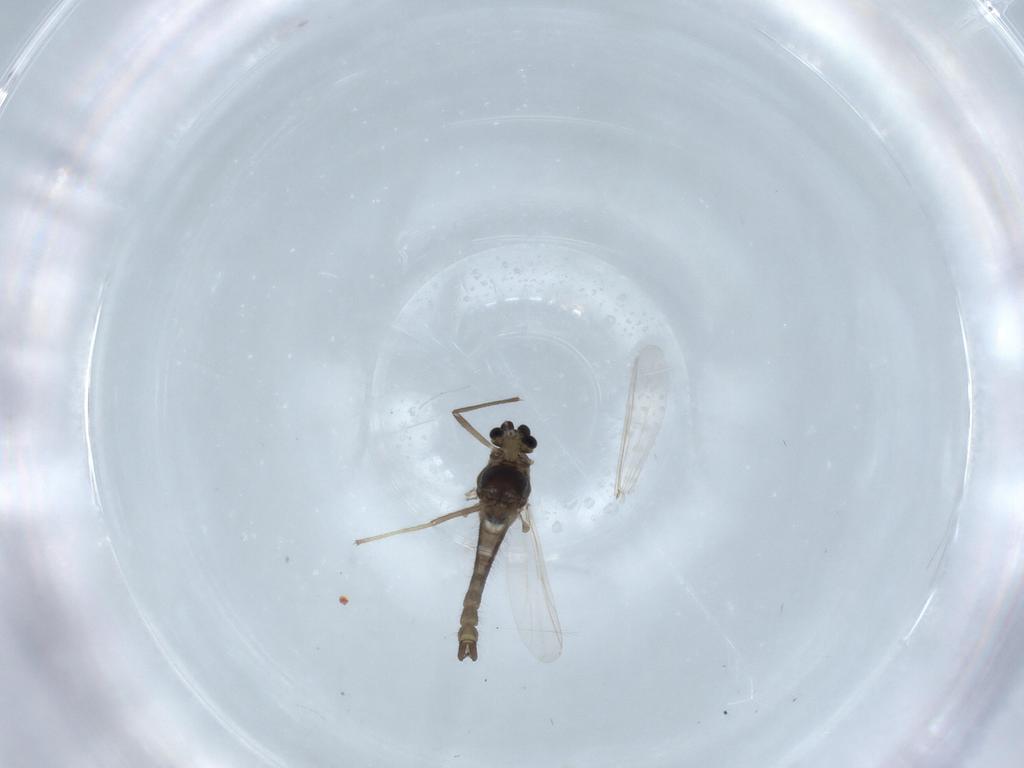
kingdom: Animalia
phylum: Arthropoda
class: Insecta
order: Diptera
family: Chironomidae
